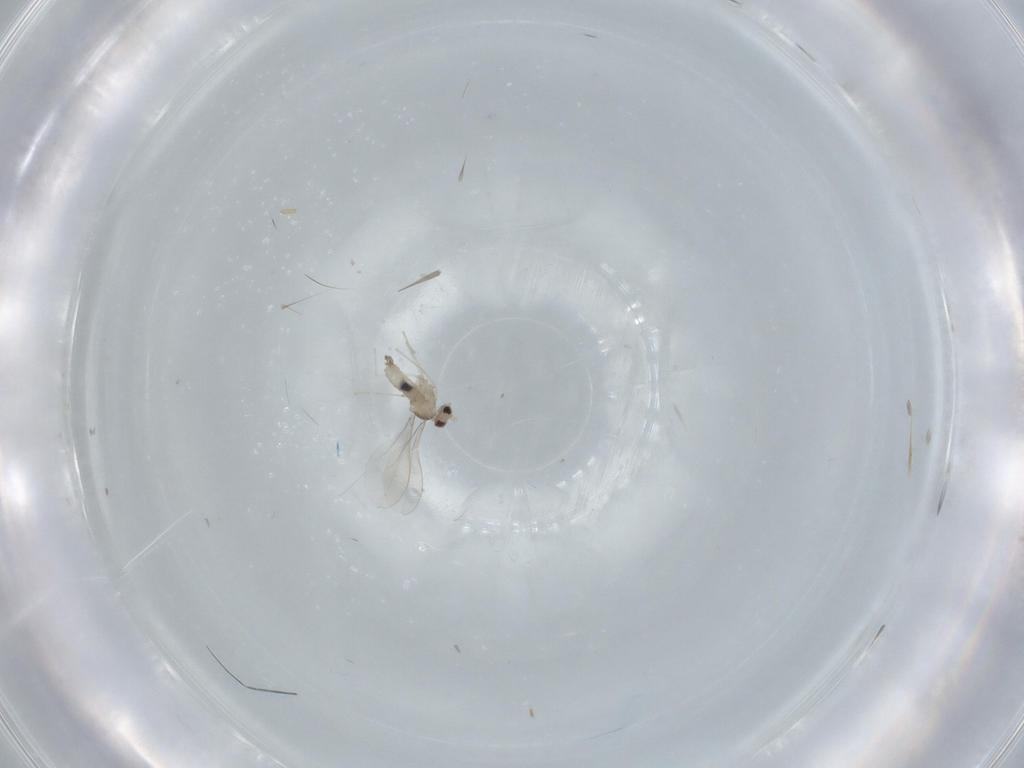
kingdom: Animalia
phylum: Arthropoda
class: Insecta
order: Diptera
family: Cecidomyiidae
